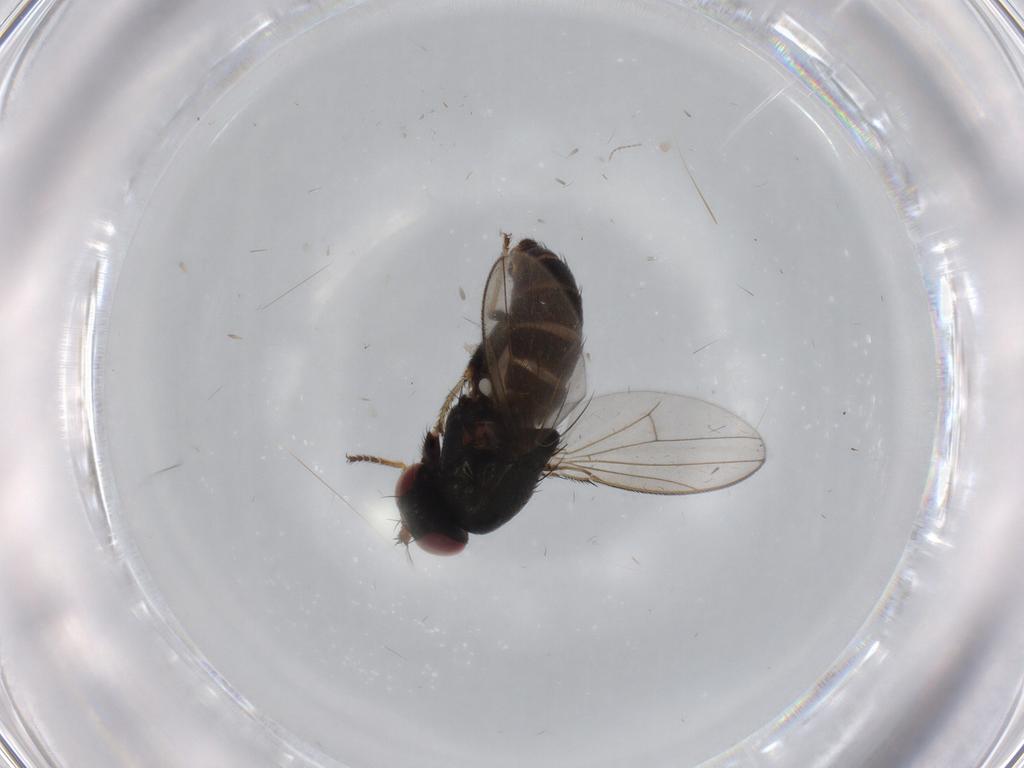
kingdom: Animalia
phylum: Arthropoda
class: Insecta
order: Diptera
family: Ephydridae
